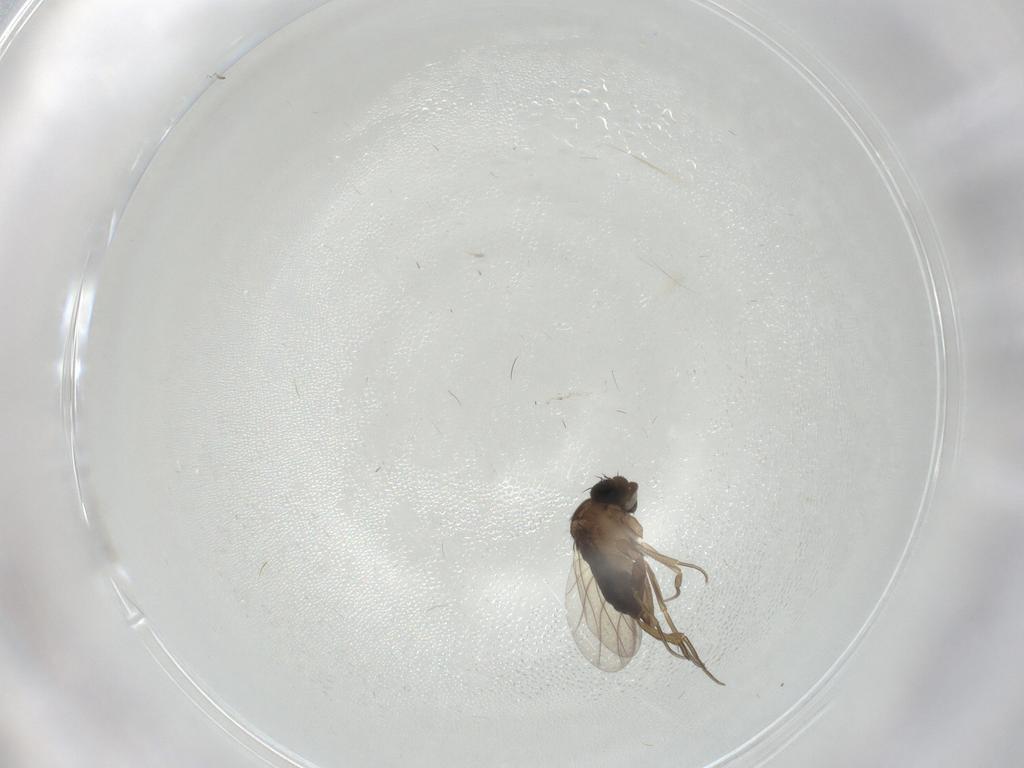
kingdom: Animalia
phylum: Arthropoda
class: Insecta
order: Diptera
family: Phoridae
